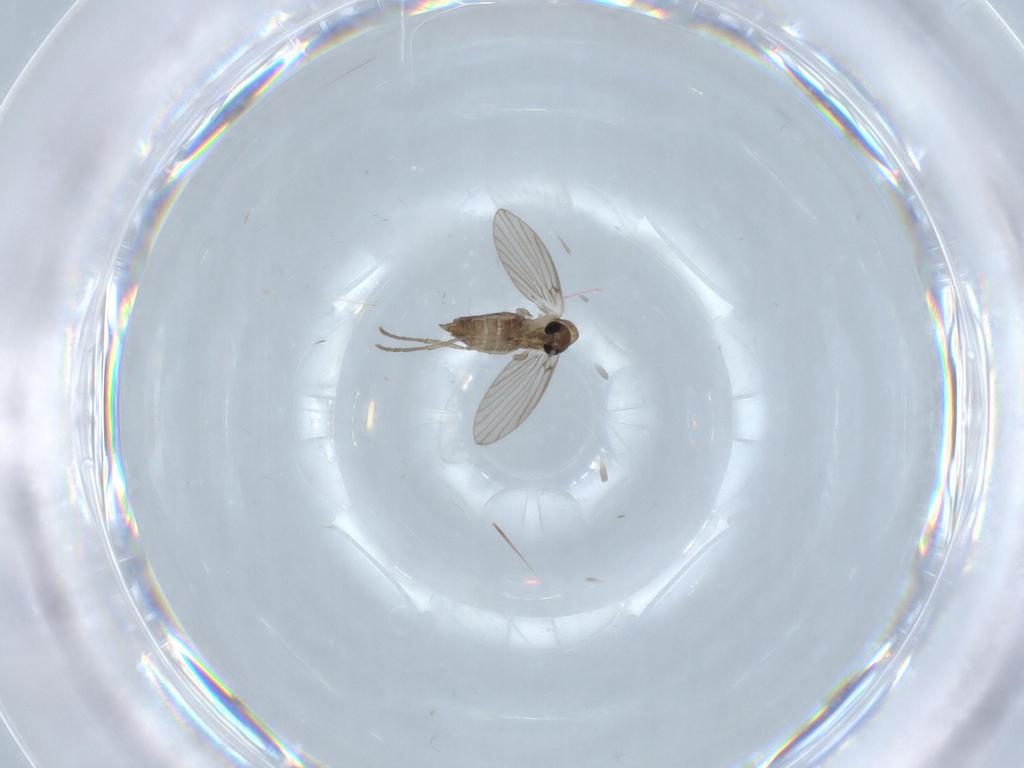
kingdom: Animalia
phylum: Arthropoda
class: Insecta
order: Diptera
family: Psychodidae
